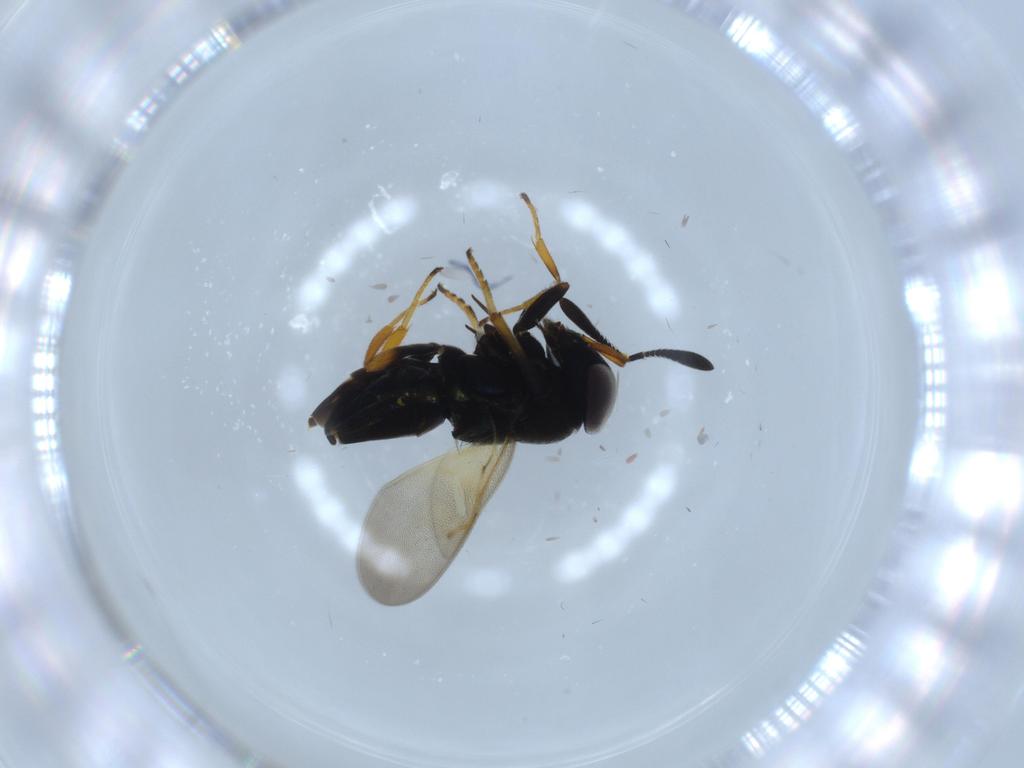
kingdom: Animalia
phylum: Arthropoda
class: Insecta
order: Hymenoptera
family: Encyrtidae
